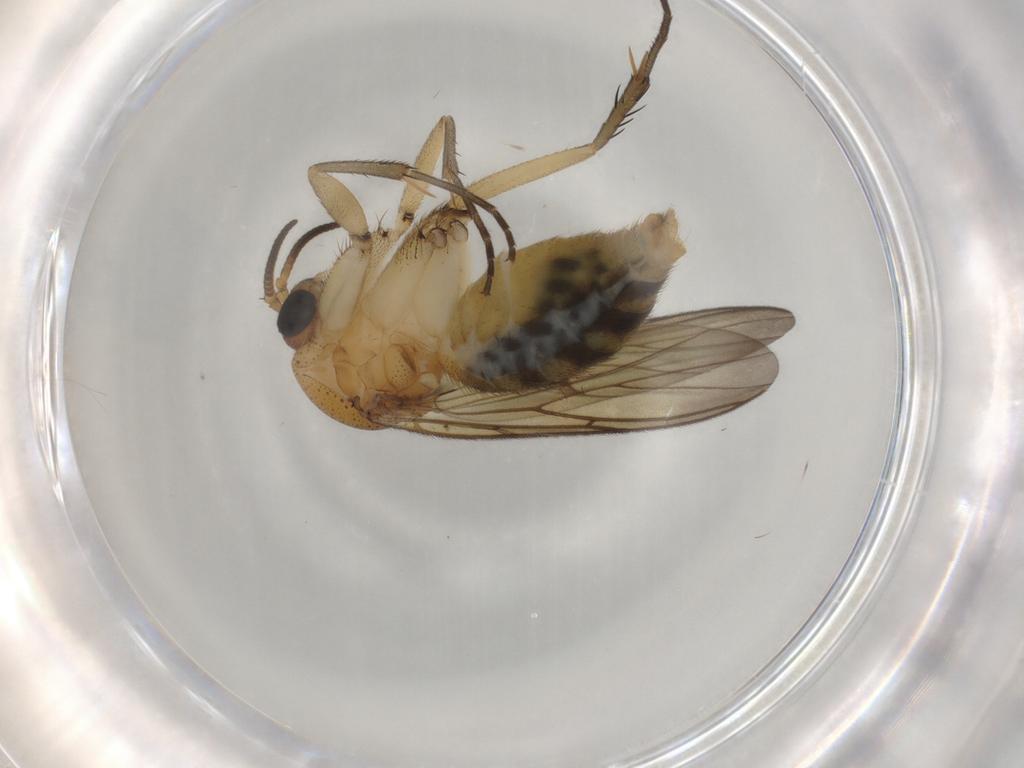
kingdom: Animalia
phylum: Arthropoda
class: Insecta
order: Diptera
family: Sciaridae
